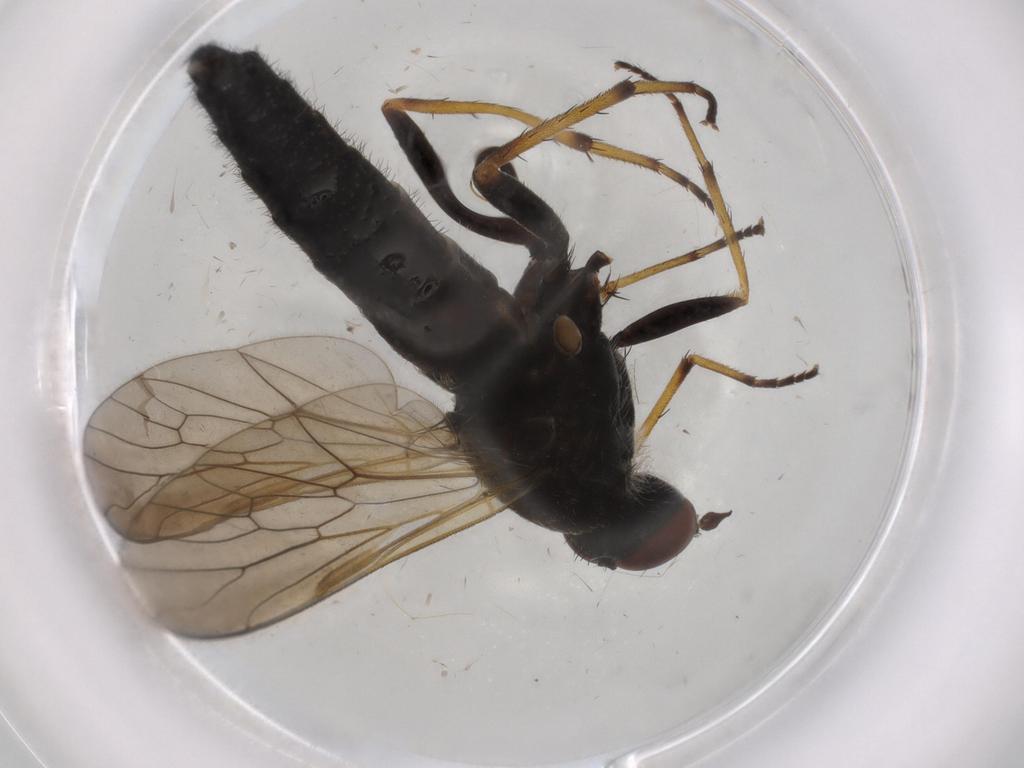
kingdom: Animalia
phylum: Arthropoda
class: Insecta
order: Diptera
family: Therevidae
